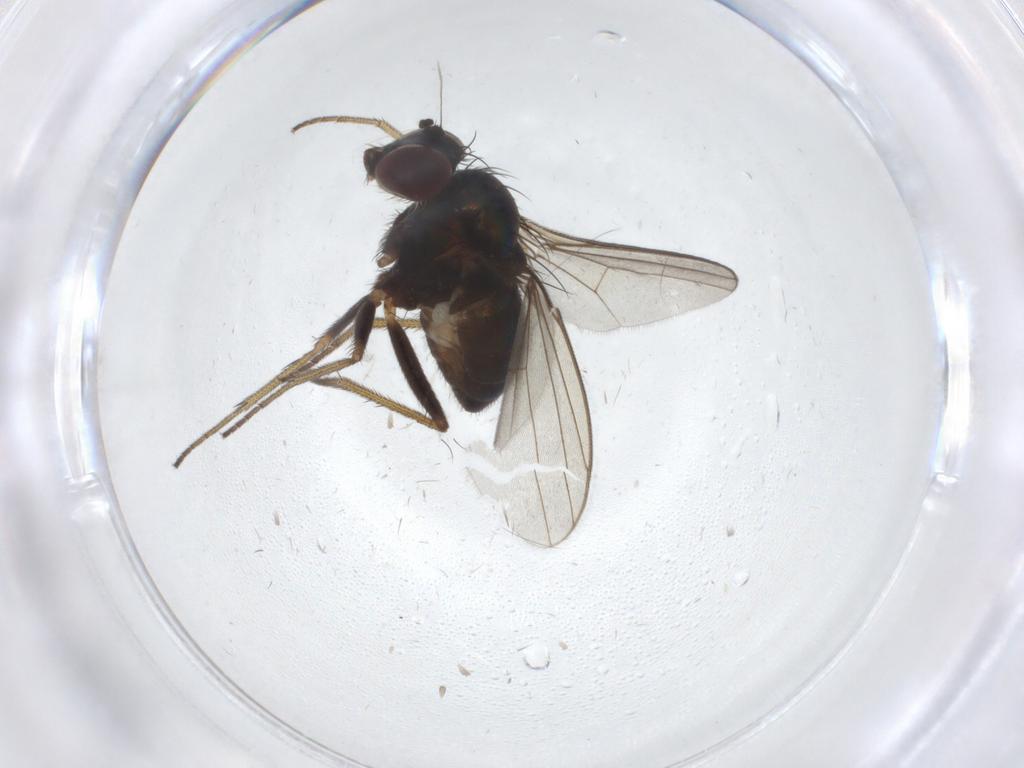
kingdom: Animalia
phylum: Arthropoda
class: Insecta
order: Diptera
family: Dolichopodidae
